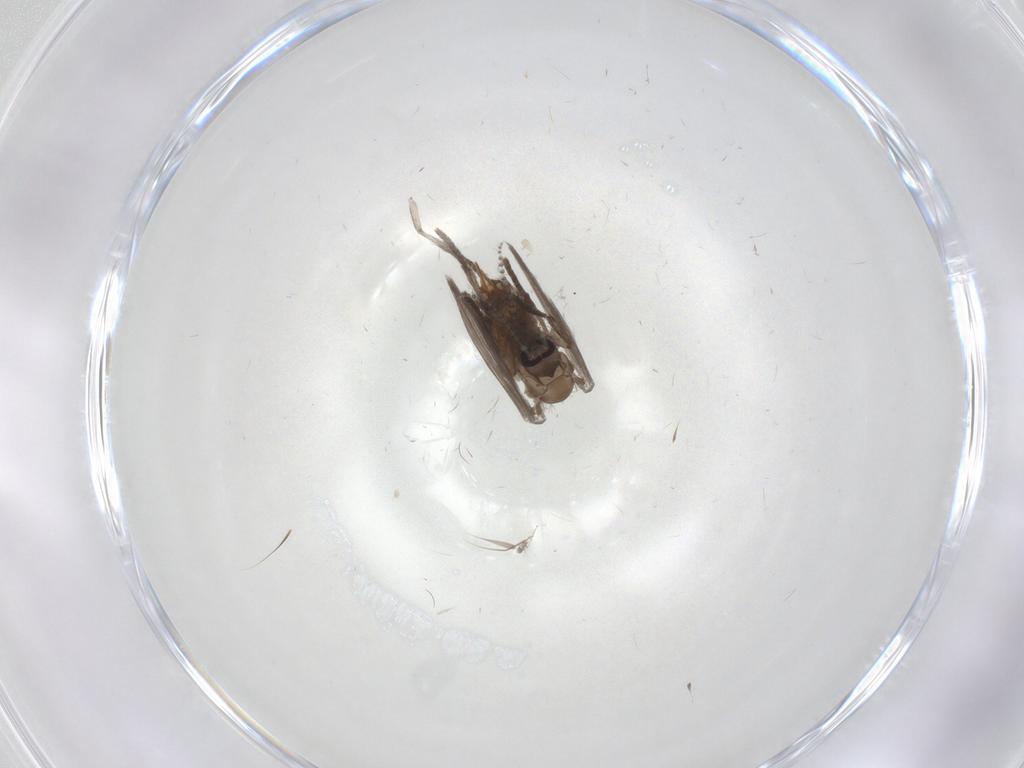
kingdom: Animalia
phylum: Arthropoda
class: Insecta
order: Diptera
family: Psychodidae
